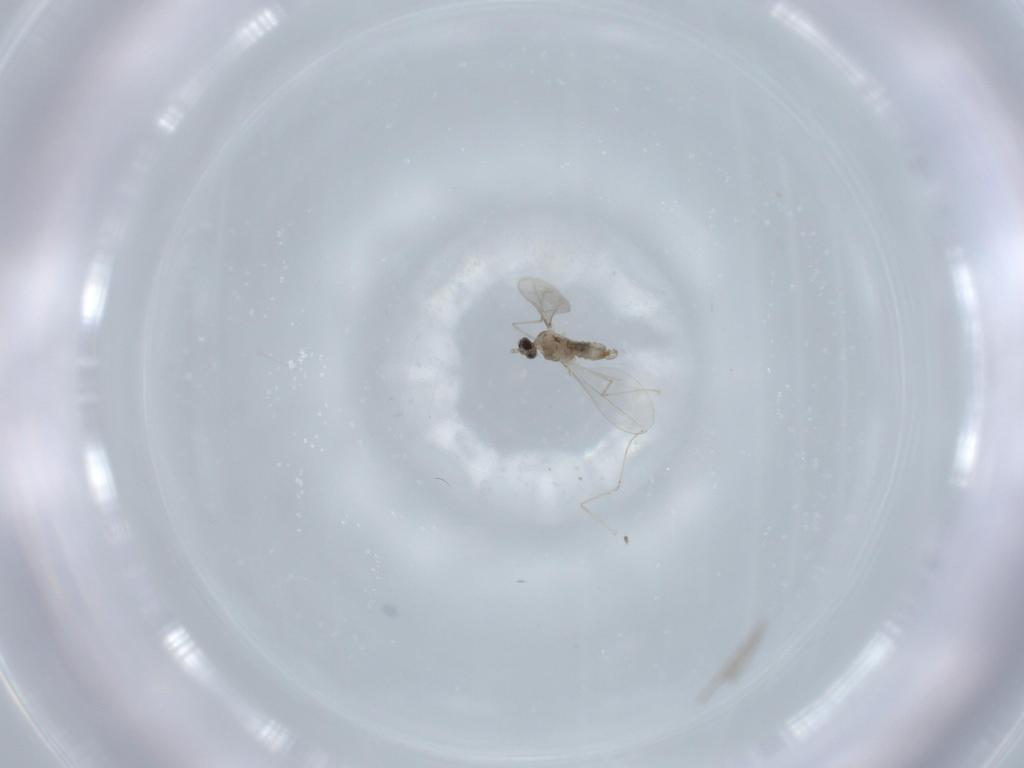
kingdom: Animalia
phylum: Arthropoda
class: Insecta
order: Diptera
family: Cecidomyiidae
